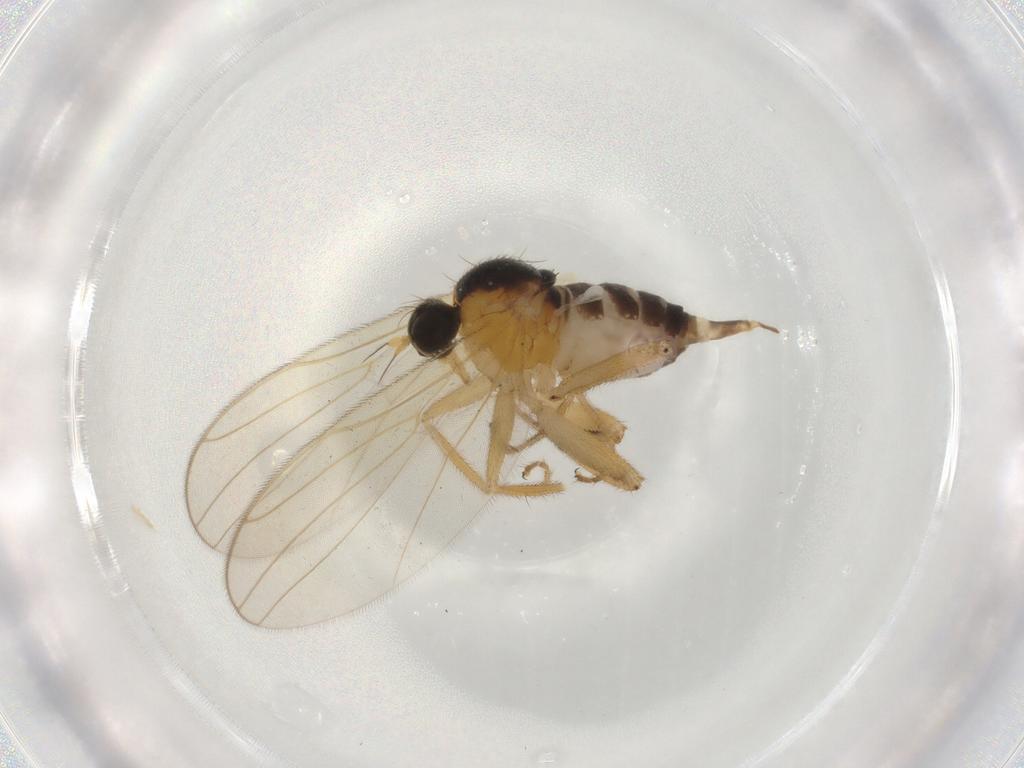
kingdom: Animalia
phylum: Arthropoda
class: Insecta
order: Diptera
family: Hybotidae
